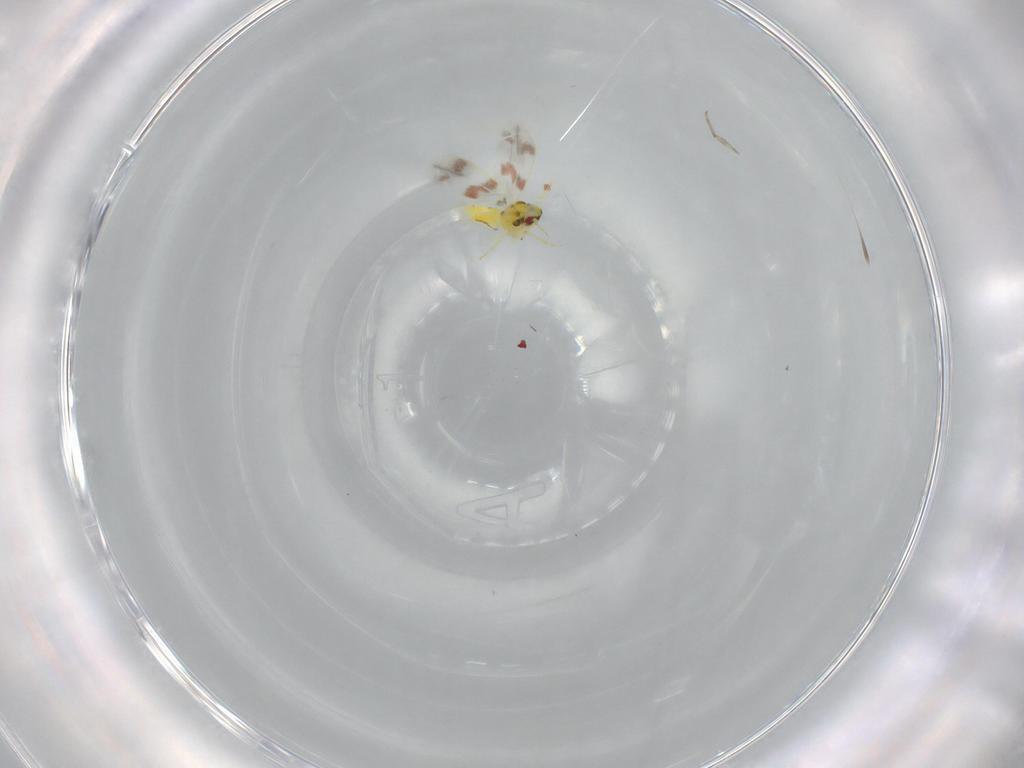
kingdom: Animalia
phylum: Arthropoda
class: Insecta
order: Hemiptera
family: Aleyrodidae
